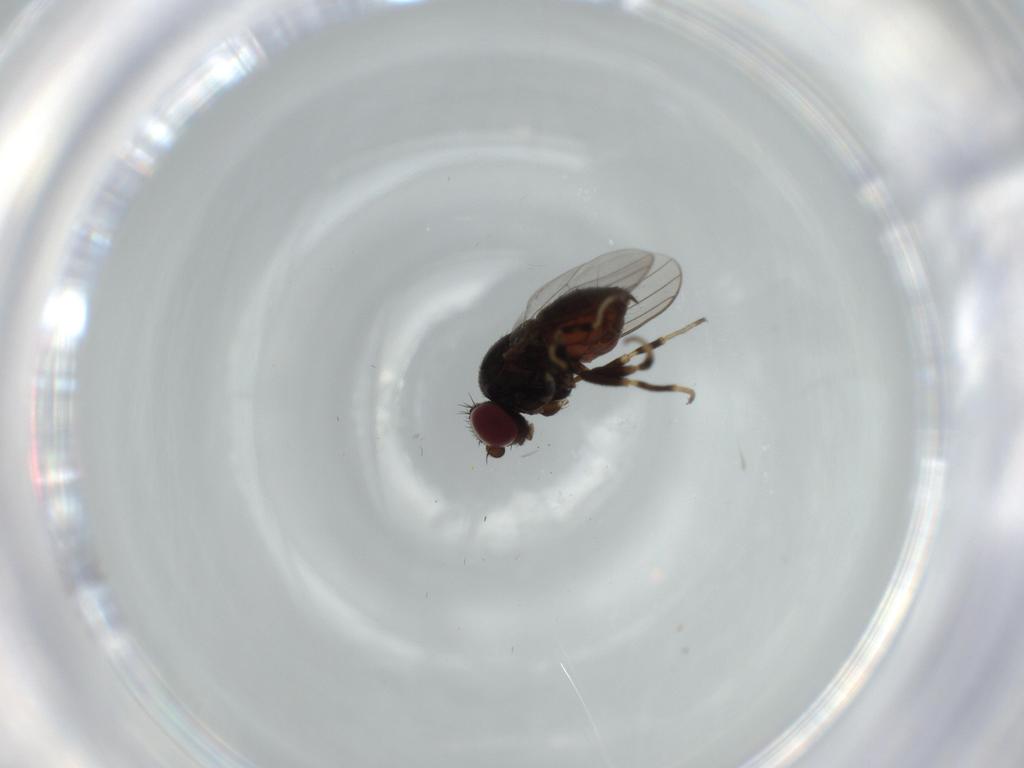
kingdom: Animalia
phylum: Arthropoda
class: Insecta
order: Diptera
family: Chloropidae
